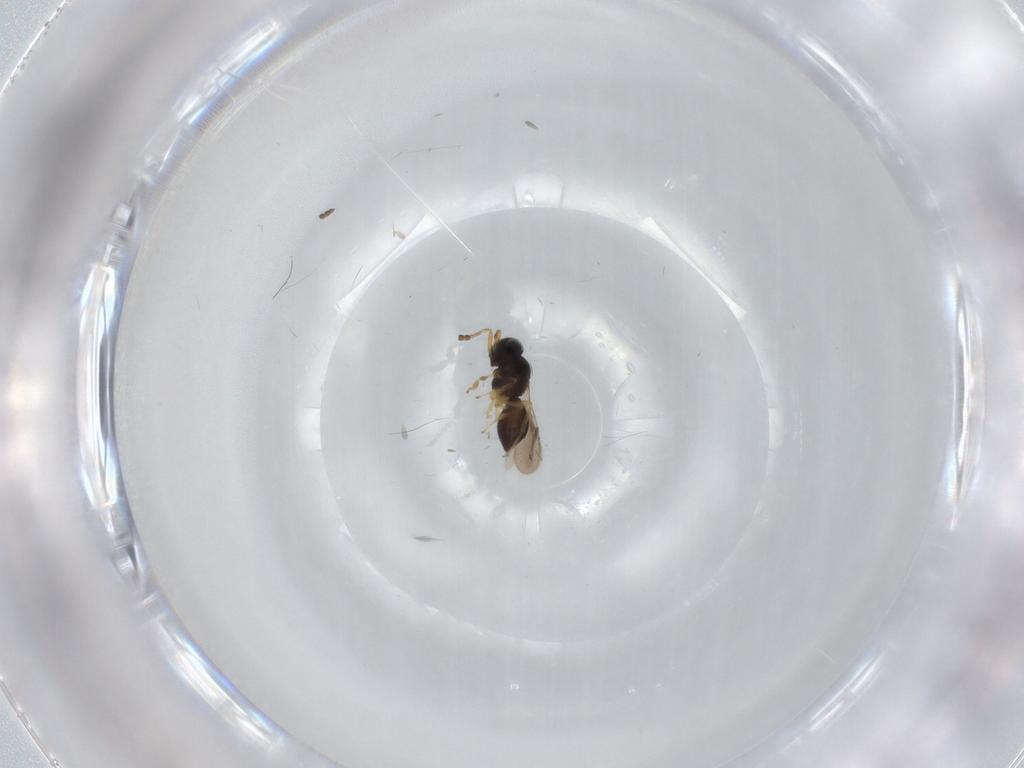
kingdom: Animalia
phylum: Arthropoda
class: Insecta
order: Hymenoptera
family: Scelionidae
